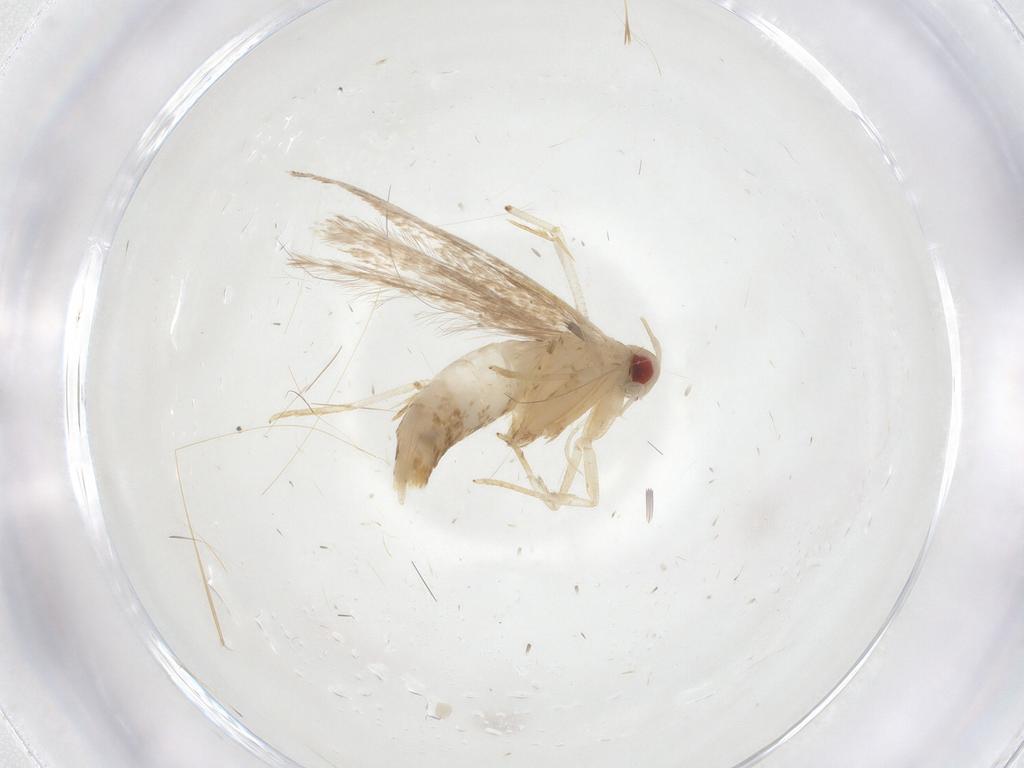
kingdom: Animalia
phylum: Arthropoda
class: Insecta
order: Lepidoptera
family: Cosmopterigidae
